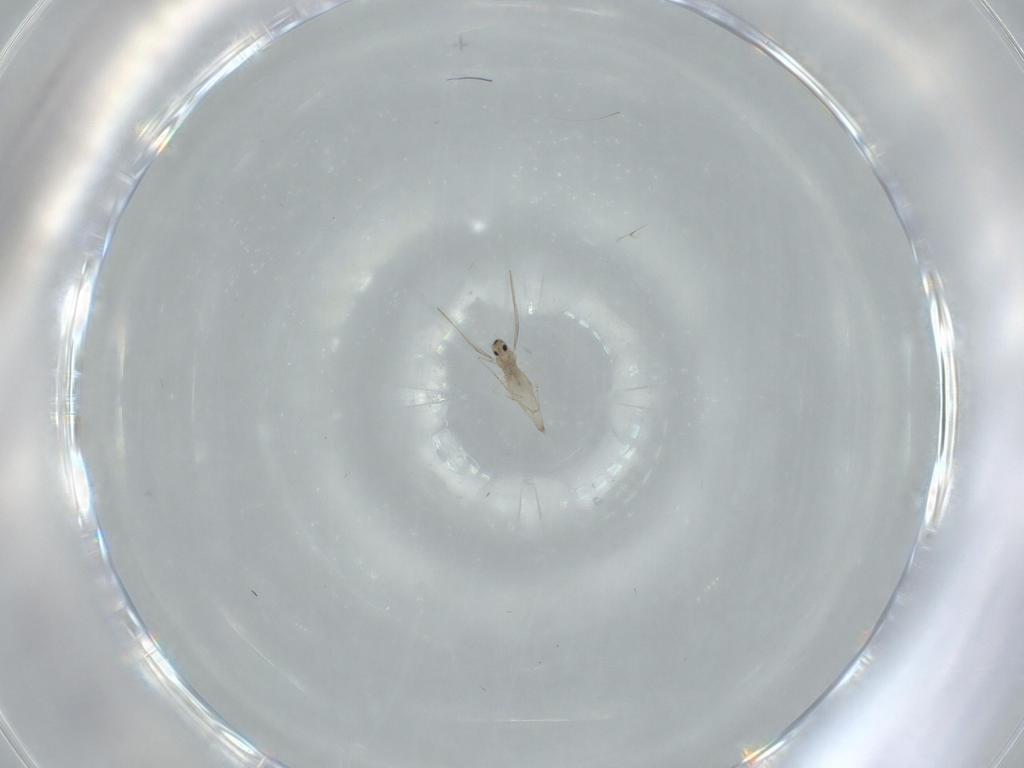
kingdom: Animalia
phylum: Arthropoda
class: Insecta
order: Diptera
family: Cecidomyiidae
